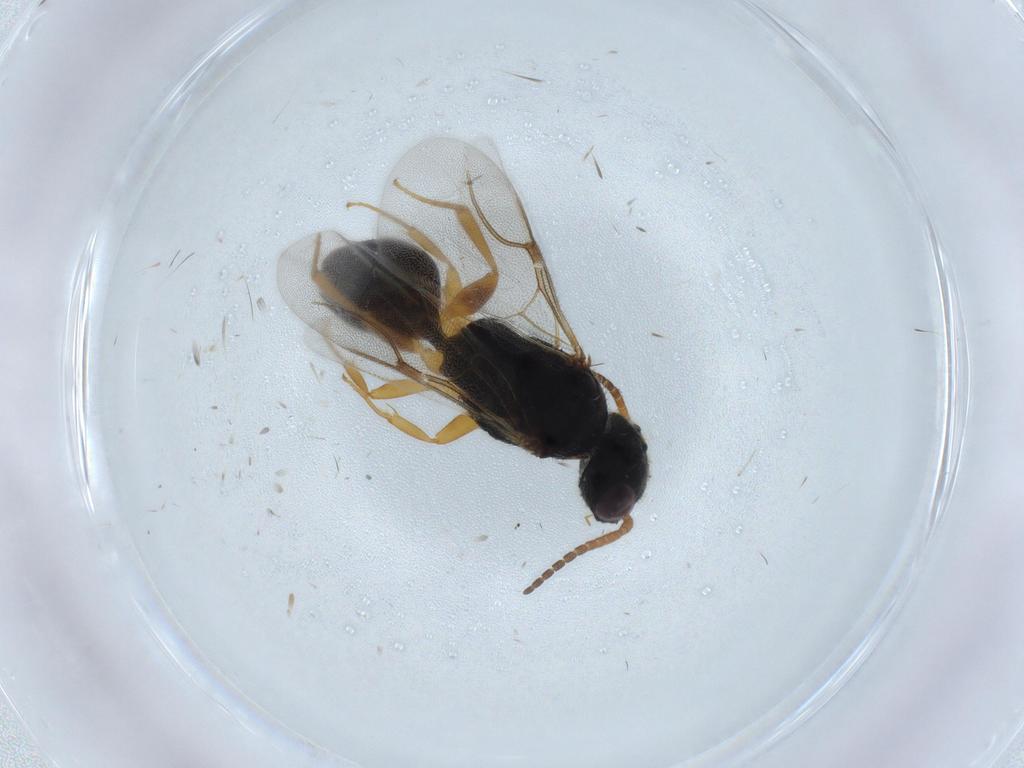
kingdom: Animalia
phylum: Arthropoda
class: Insecta
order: Hymenoptera
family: Bethylidae
